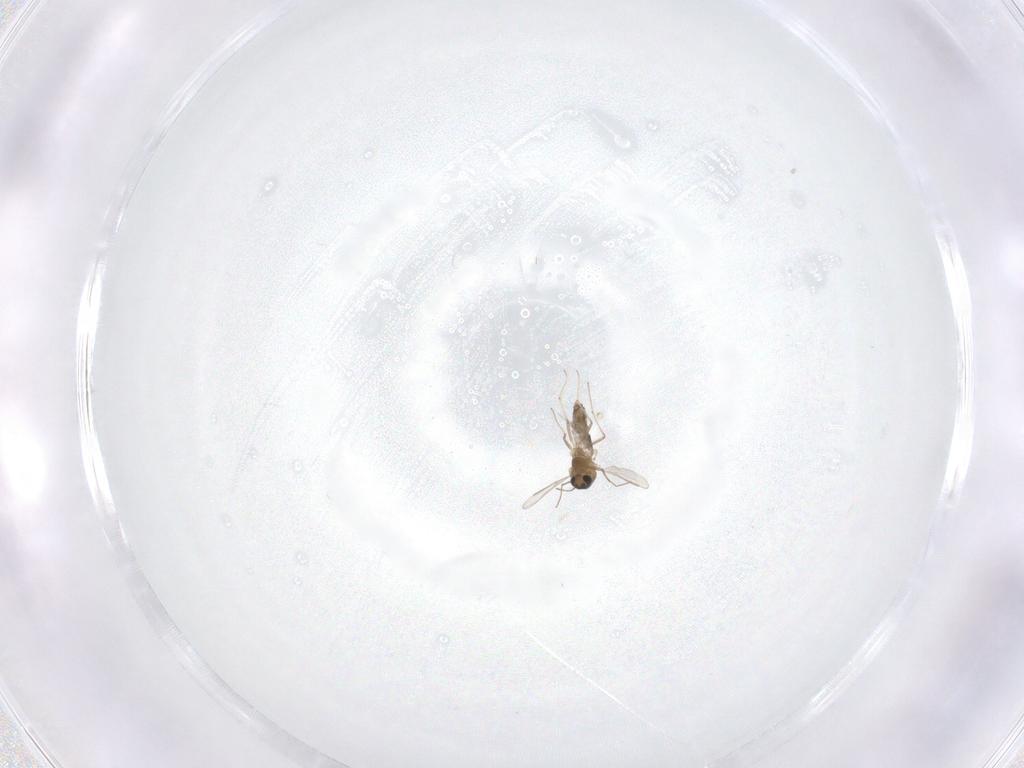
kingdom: Animalia
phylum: Arthropoda
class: Insecta
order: Diptera
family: Chironomidae
